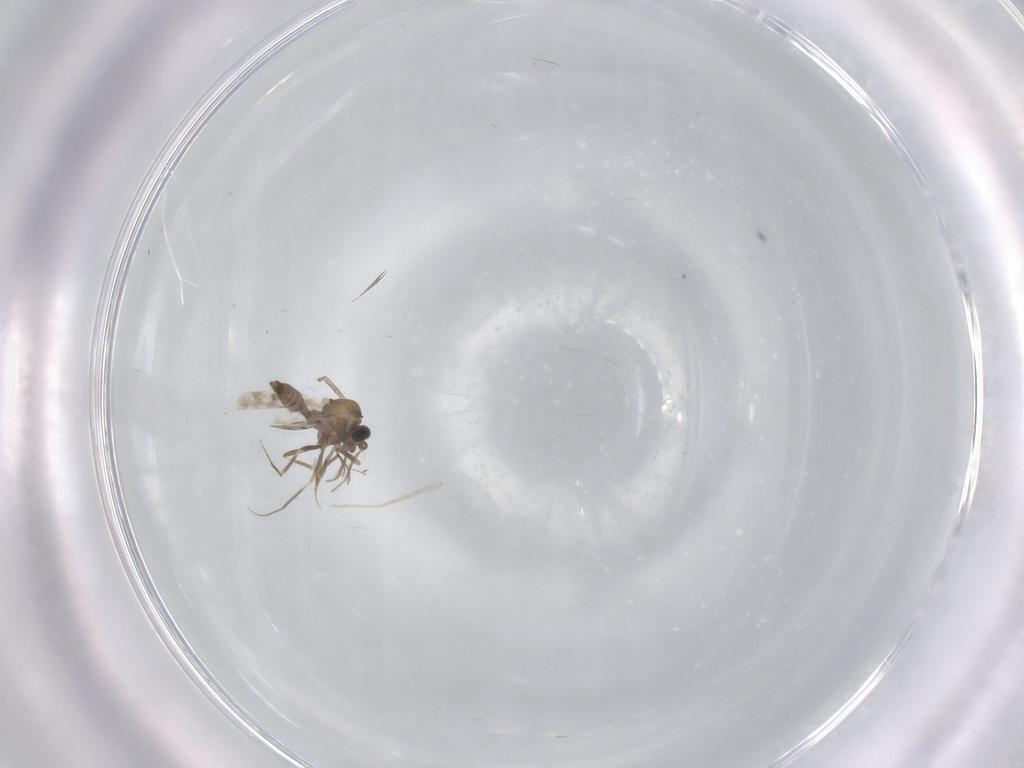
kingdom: Animalia
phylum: Arthropoda
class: Insecta
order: Diptera
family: Ceratopogonidae
